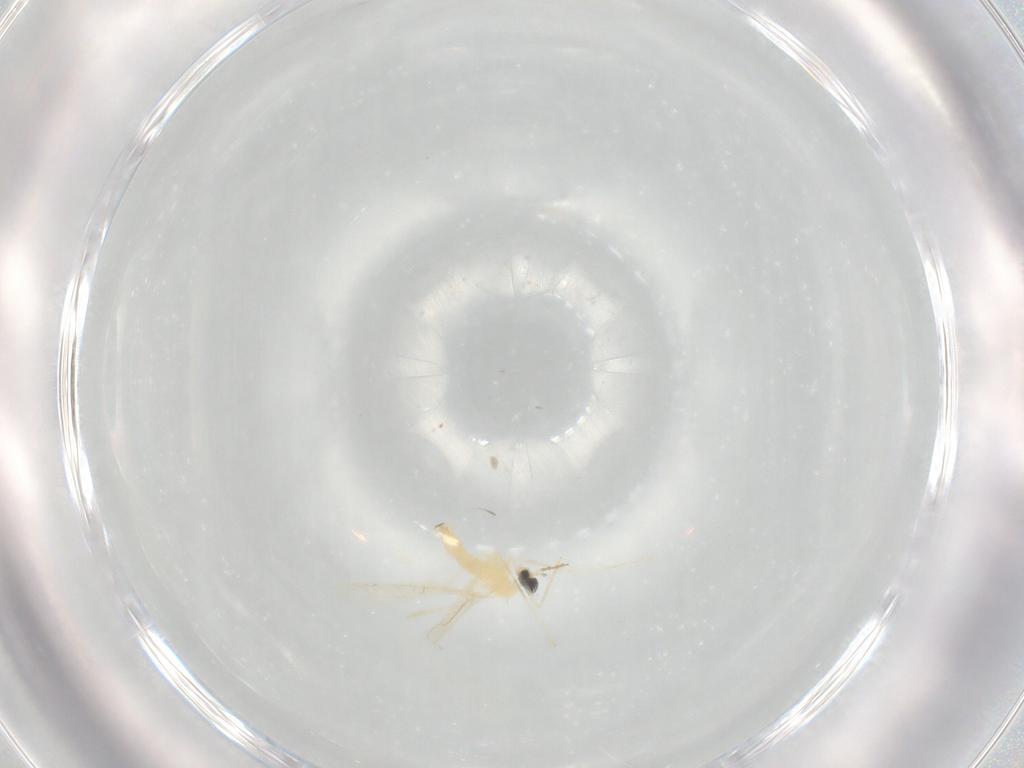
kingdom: Animalia
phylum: Arthropoda
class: Insecta
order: Diptera
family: Cecidomyiidae
